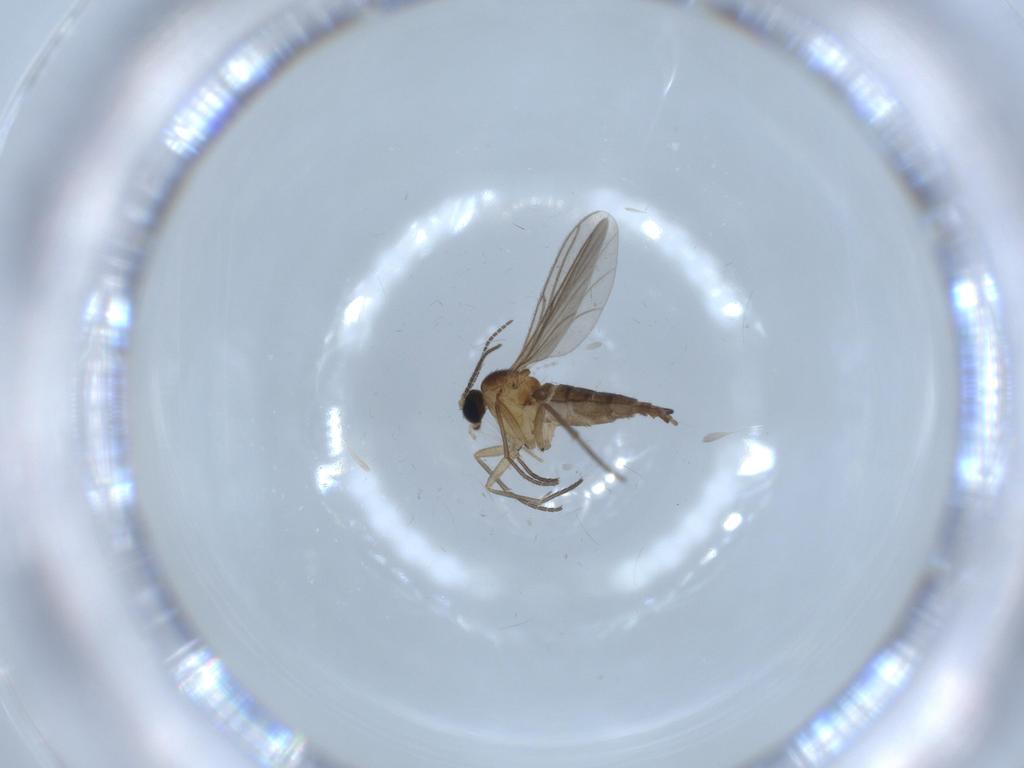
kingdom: Animalia
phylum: Arthropoda
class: Insecta
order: Diptera
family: Sciaridae
